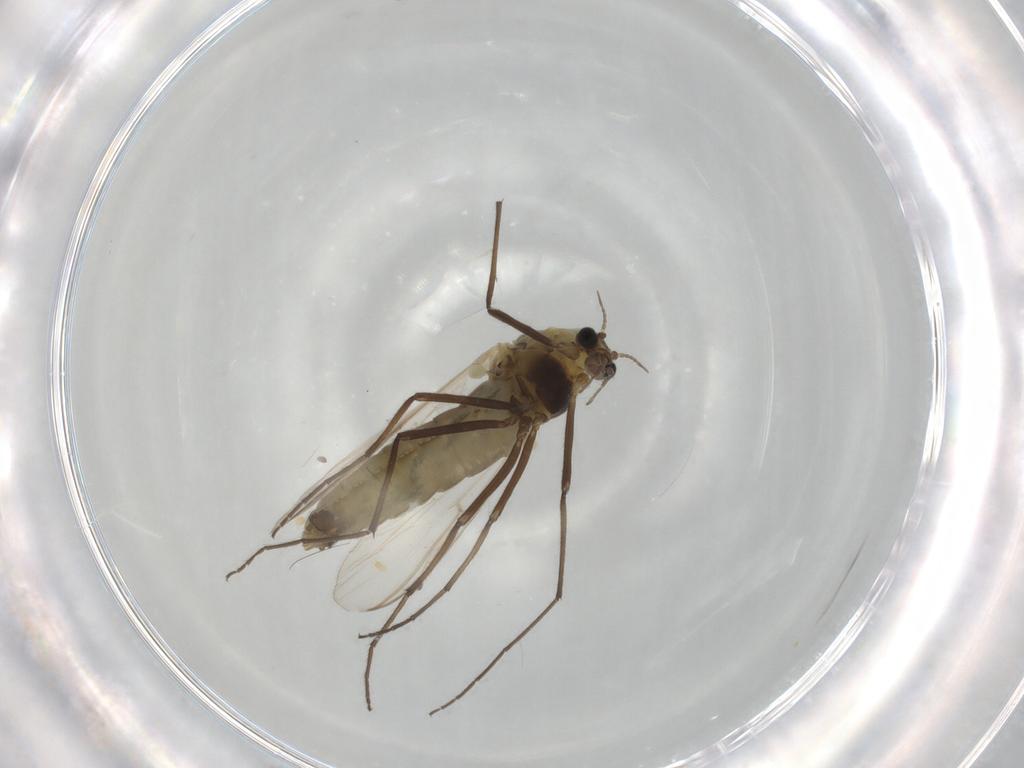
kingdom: Animalia
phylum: Arthropoda
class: Insecta
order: Diptera
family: Chironomidae
